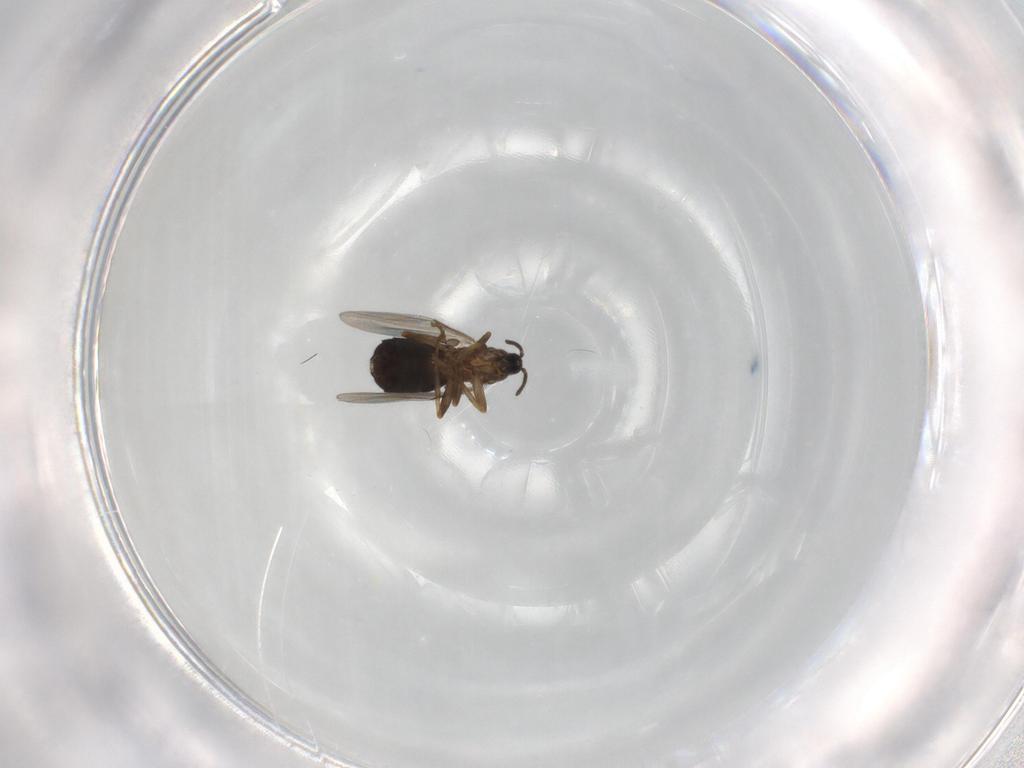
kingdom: Animalia
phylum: Arthropoda
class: Insecta
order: Diptera
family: Scatopsidae
